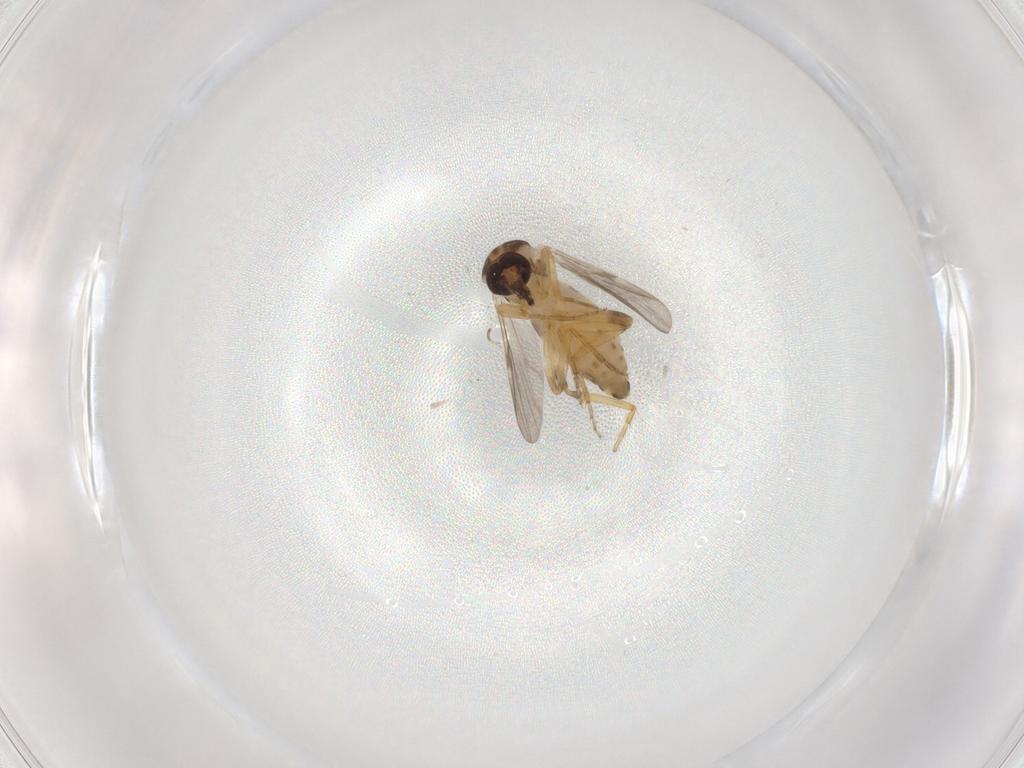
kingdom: Animalia
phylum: Arthropoda
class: Insecta
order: Diptera
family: Ceratopogonidae
